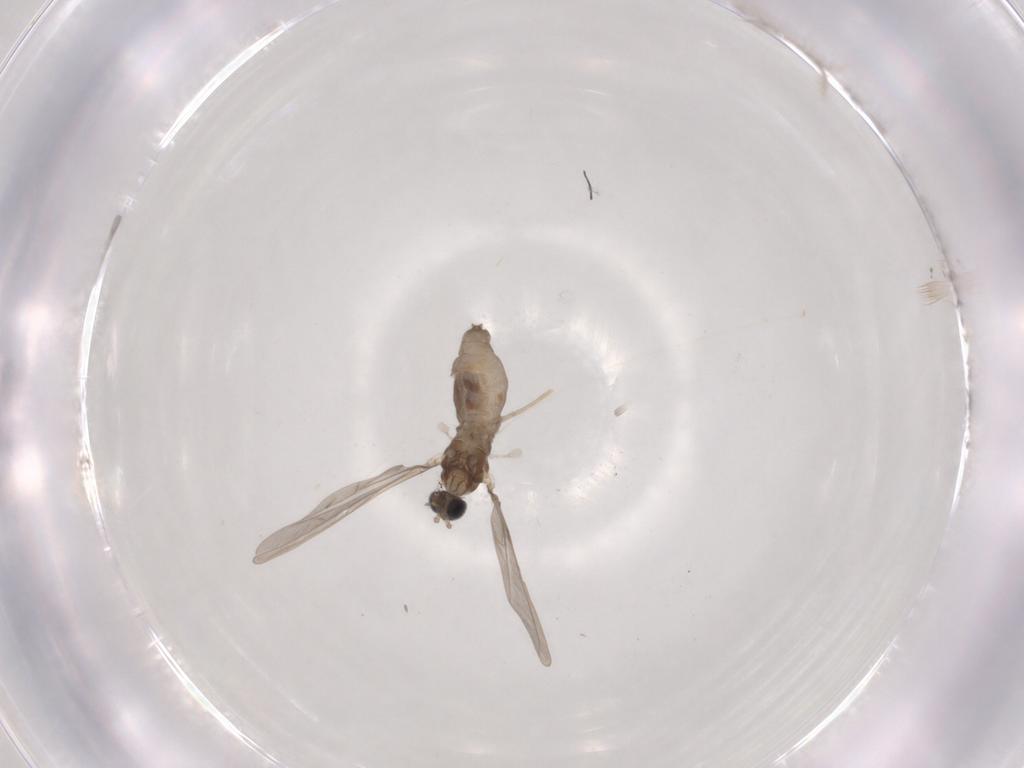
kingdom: Animalia
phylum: Arthropoda
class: Insecta
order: Diptera
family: Cecidomyiidae
